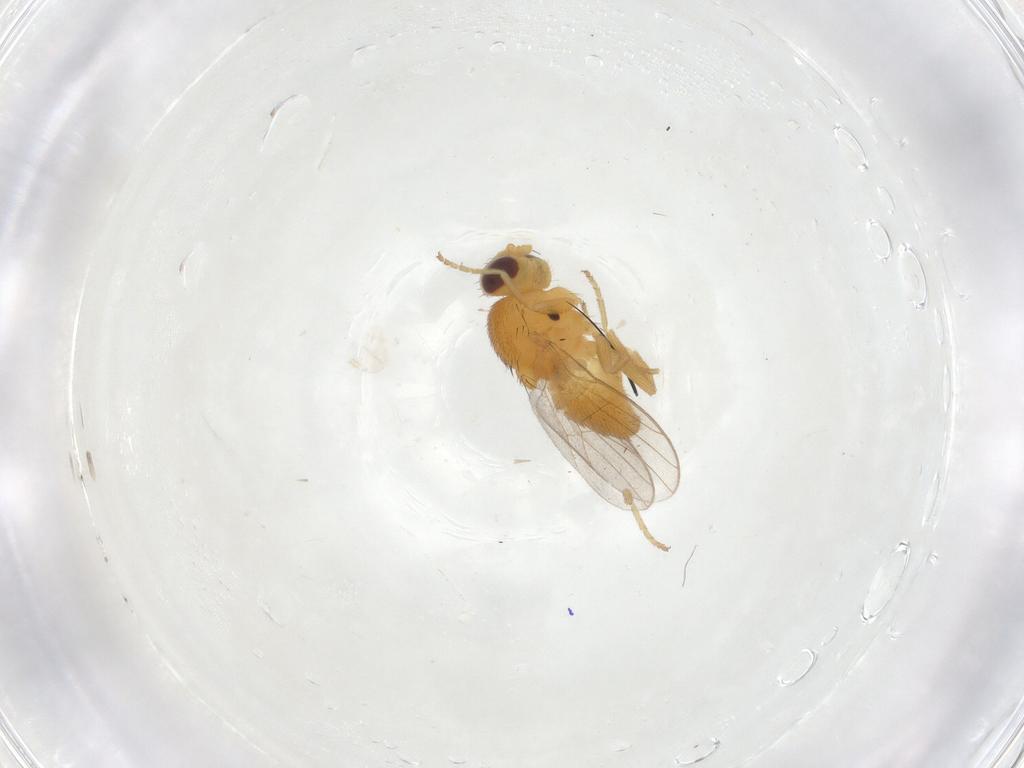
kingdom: Animalia
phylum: Arthropoda
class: Insecta
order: Diptera
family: Chloropidae
